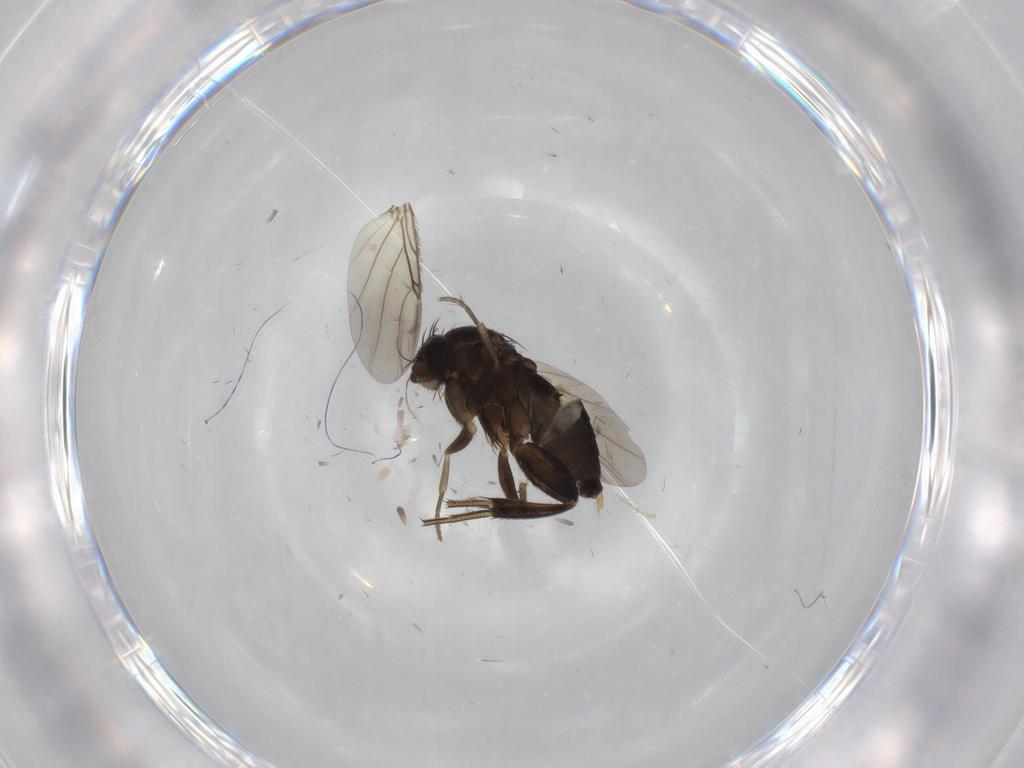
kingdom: Animalia
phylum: Arthropoda
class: Insecta
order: Diptera
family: Phoridae
